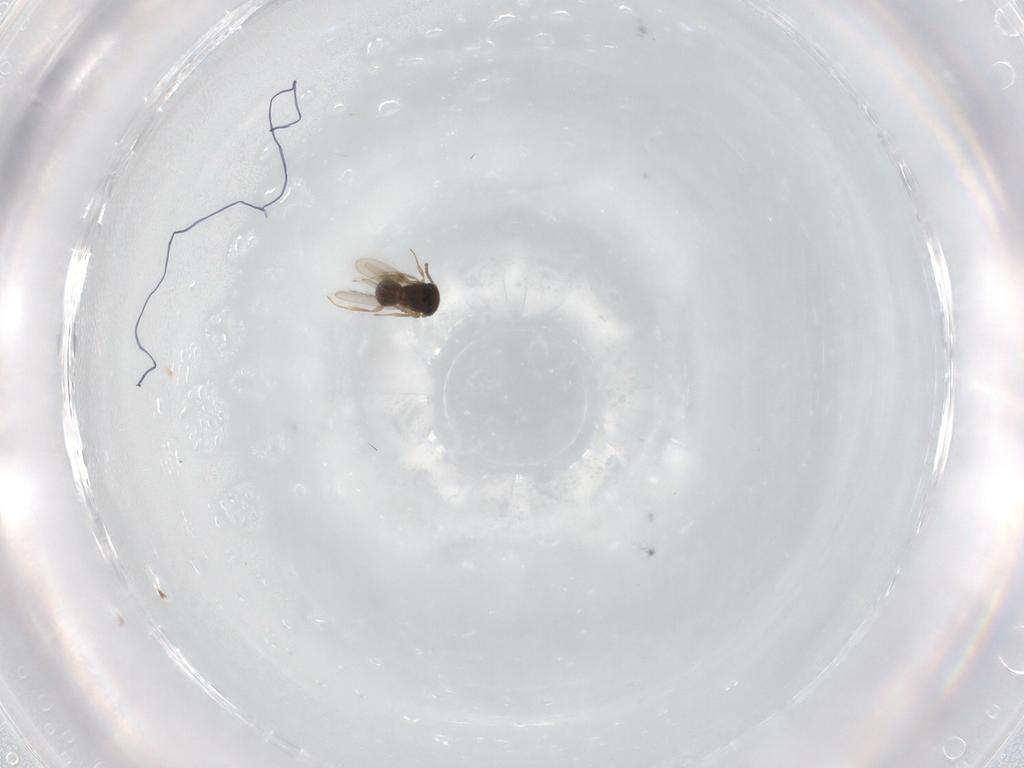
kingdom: Animalia
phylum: Arthropoda
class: Insecta
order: Hymenoptera
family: Scelionidae
